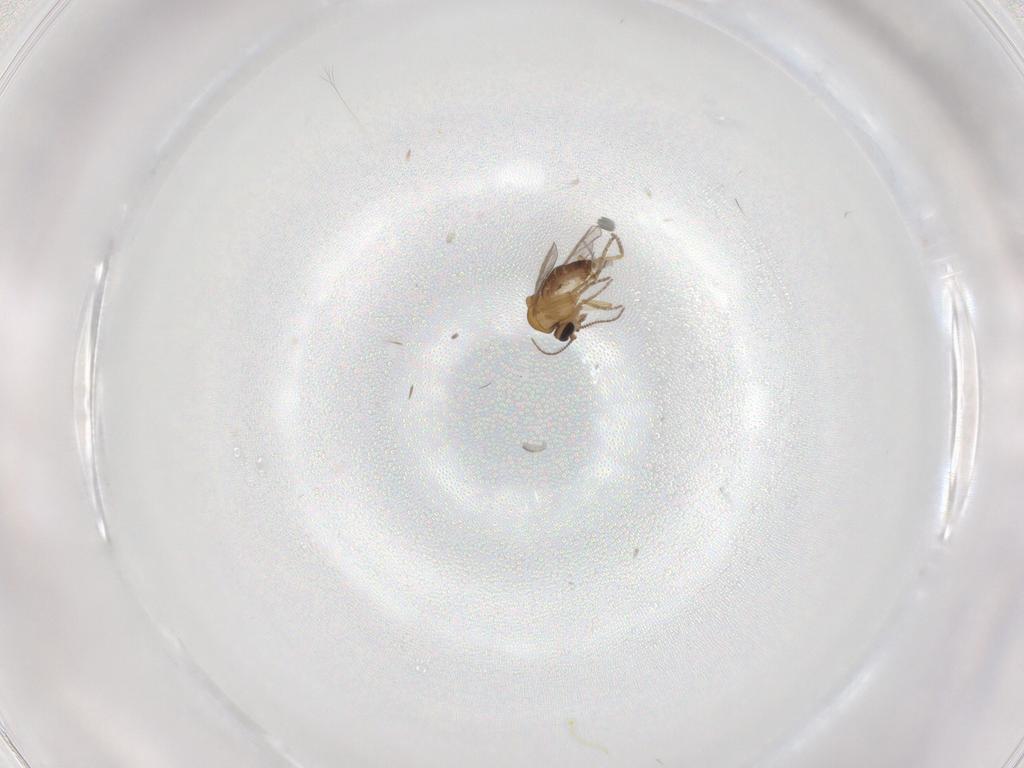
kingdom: Animalia
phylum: Arthropoda
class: Insecta
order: Diptera
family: Ceratopogonidae
